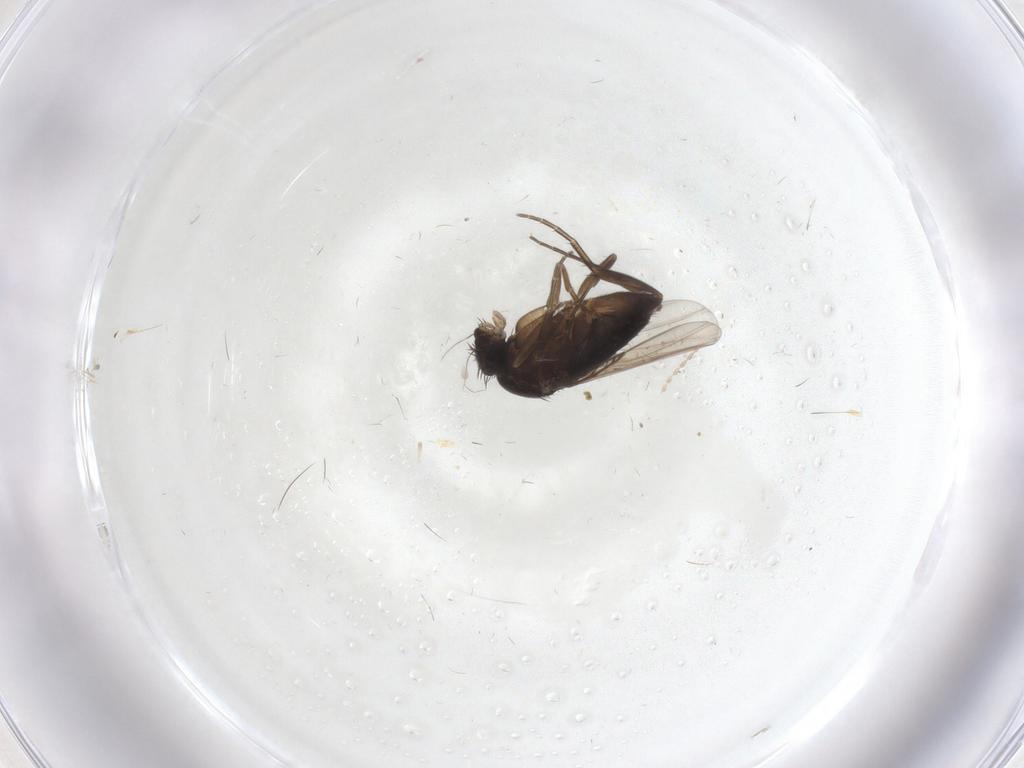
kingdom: Animalia
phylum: Arthropoda
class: Insecta
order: Diptera
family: Phoridae
